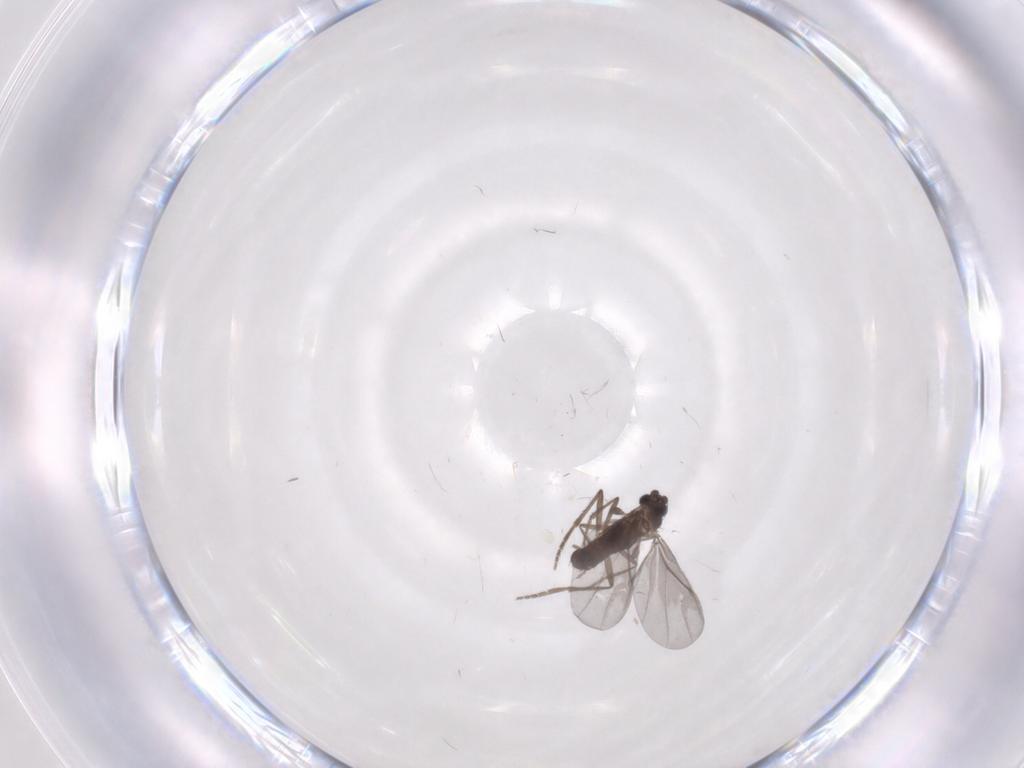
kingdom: Animalia
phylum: Arthropoda
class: Insecta
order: Diptera
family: Phoridae
